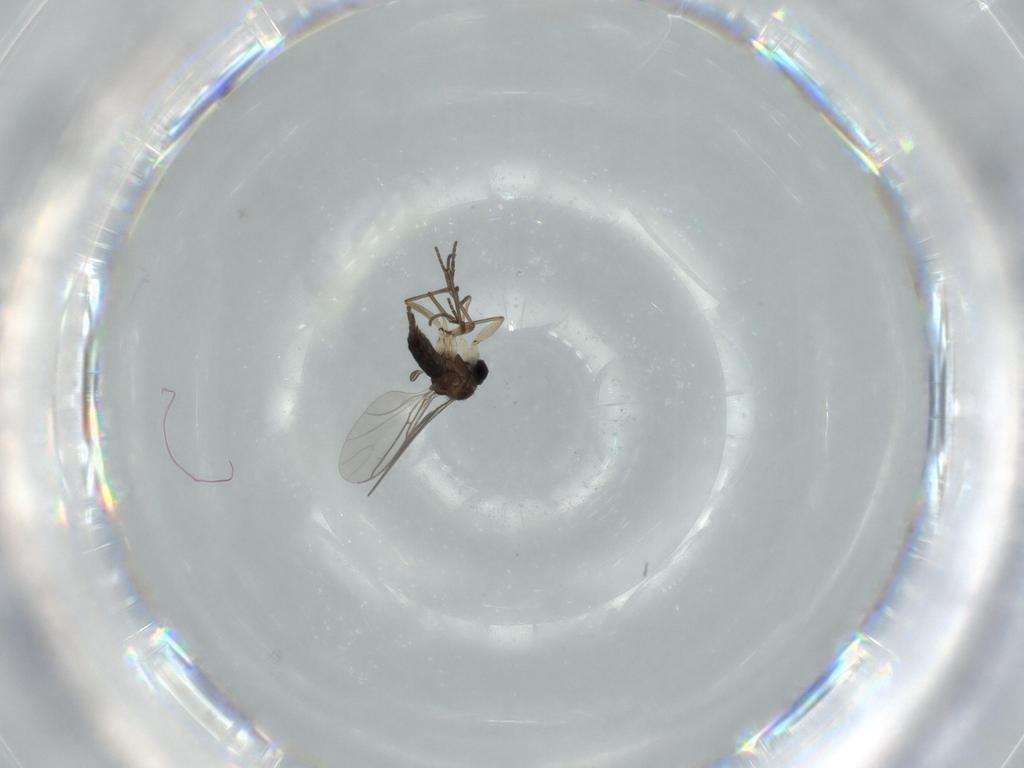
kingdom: Animalia
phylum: Arthropoda
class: Insecta
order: Diptera
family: Sciaridae
